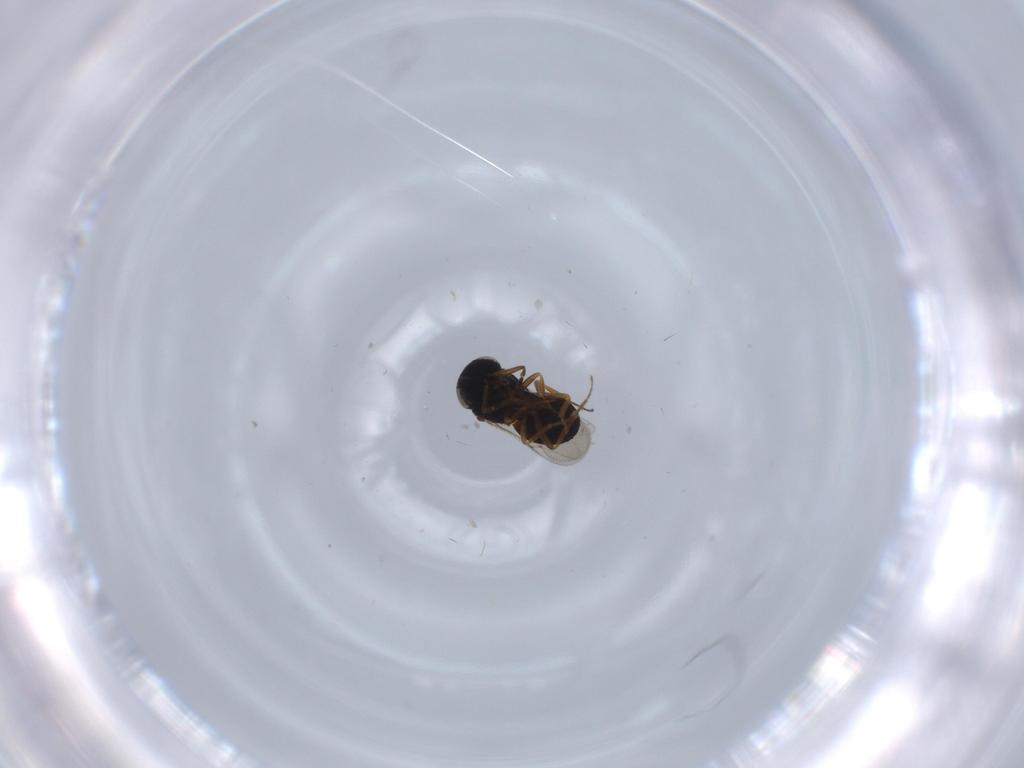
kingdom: Animalia
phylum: Arthropoda
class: Insecta
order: Coleoptera
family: Curculionidae
